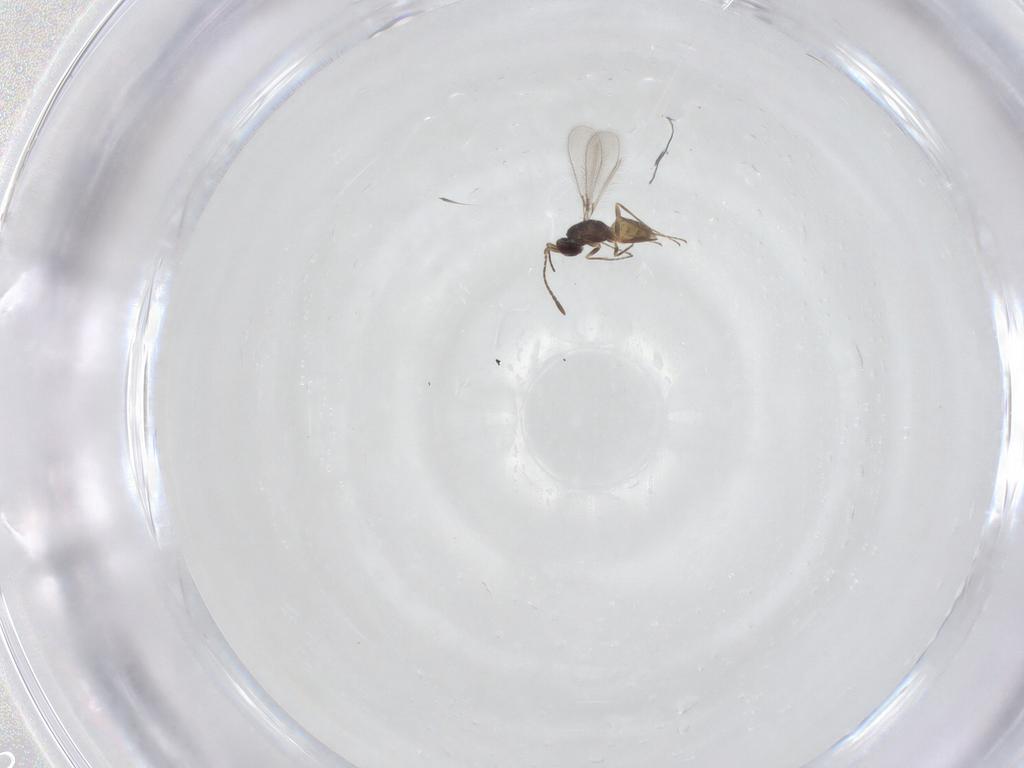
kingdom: Animalia
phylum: Arthropoda
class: Insecta
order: Hymenoptera
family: Mymaridae
